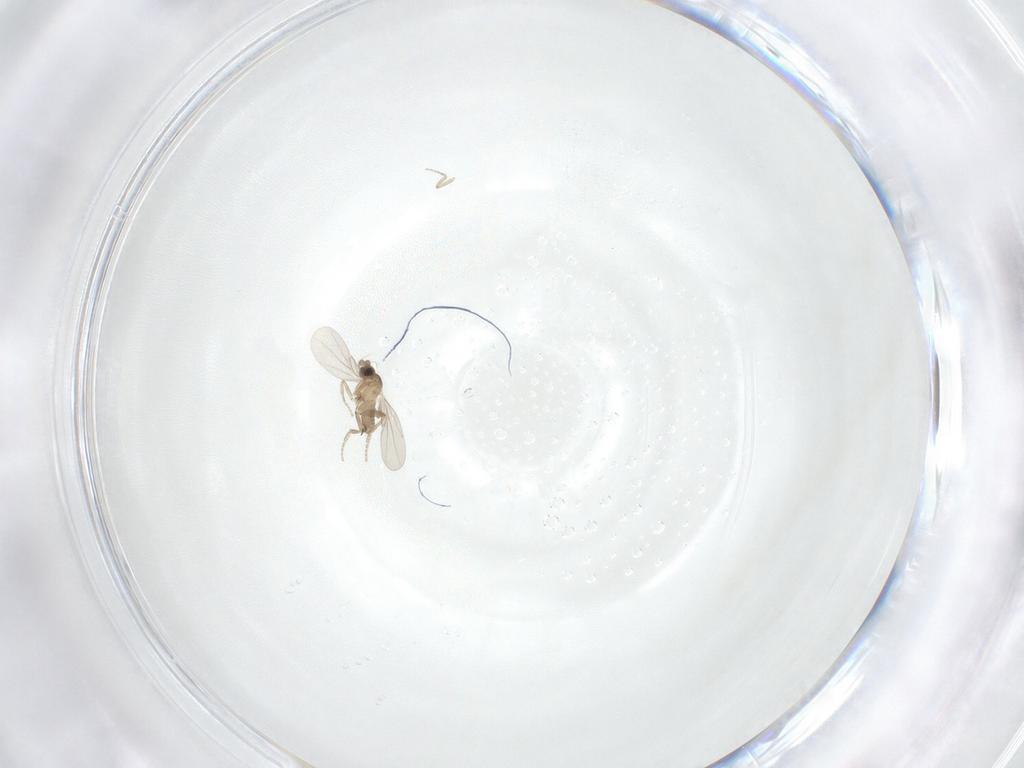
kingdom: Animalia
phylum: Arthropoda
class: Insecta
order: Diptera
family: Cecidomyiidae
